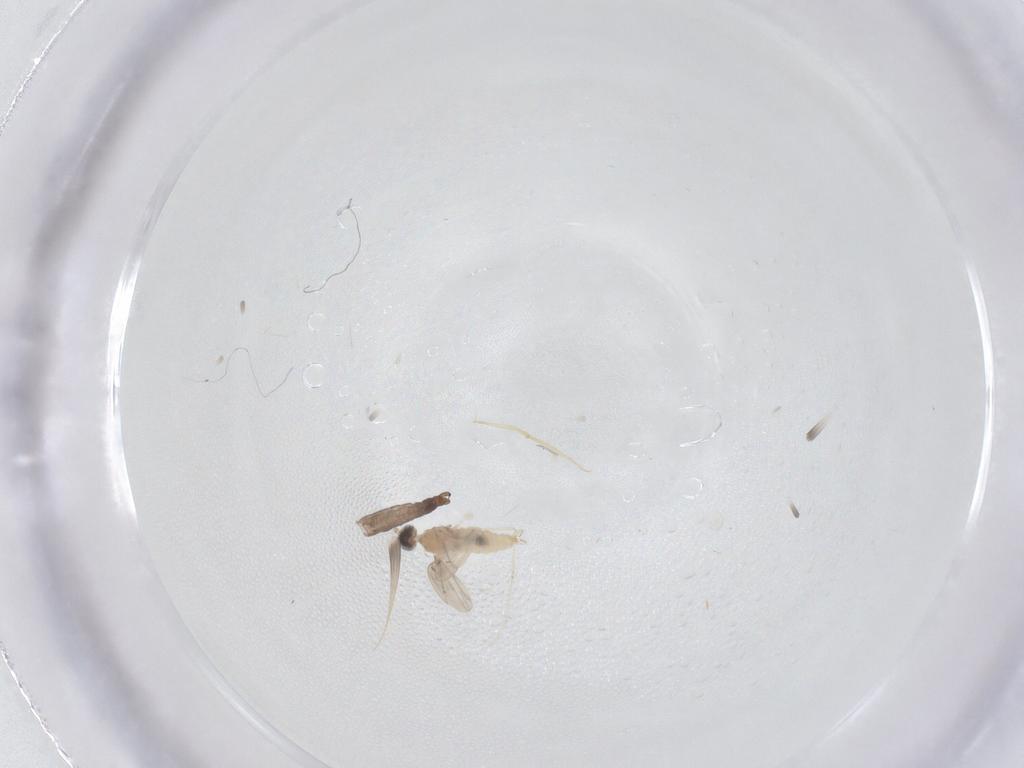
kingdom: Animalia
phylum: Arthropoda
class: Insecta
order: Diptera
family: Cecidomyiidae
